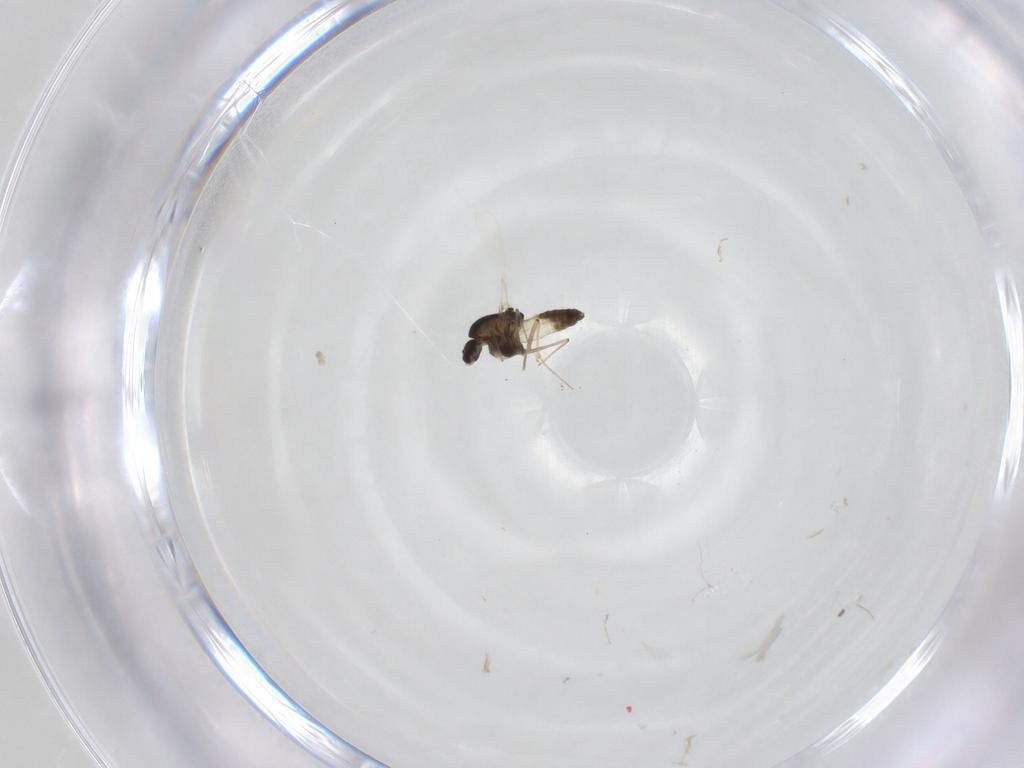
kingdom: Animalia
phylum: Arthropoda
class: Insecta
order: Diptera
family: Chironomidae
